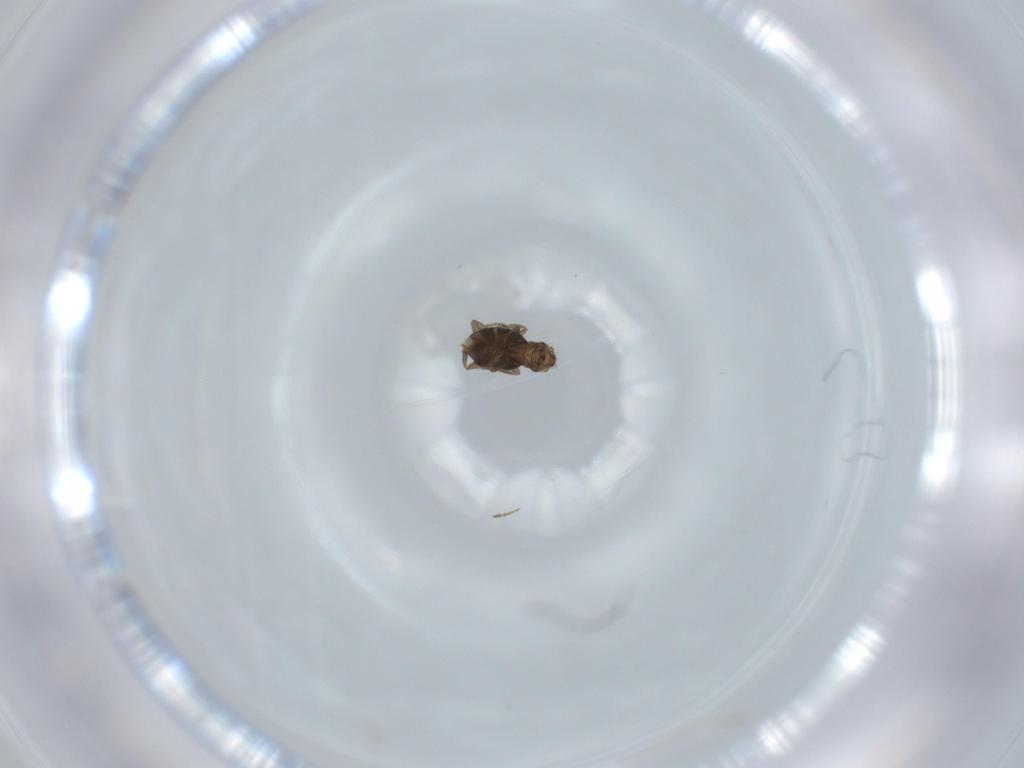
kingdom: Animalia
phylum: Arthropoda
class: Insecta
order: Diptera
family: Phoridae
